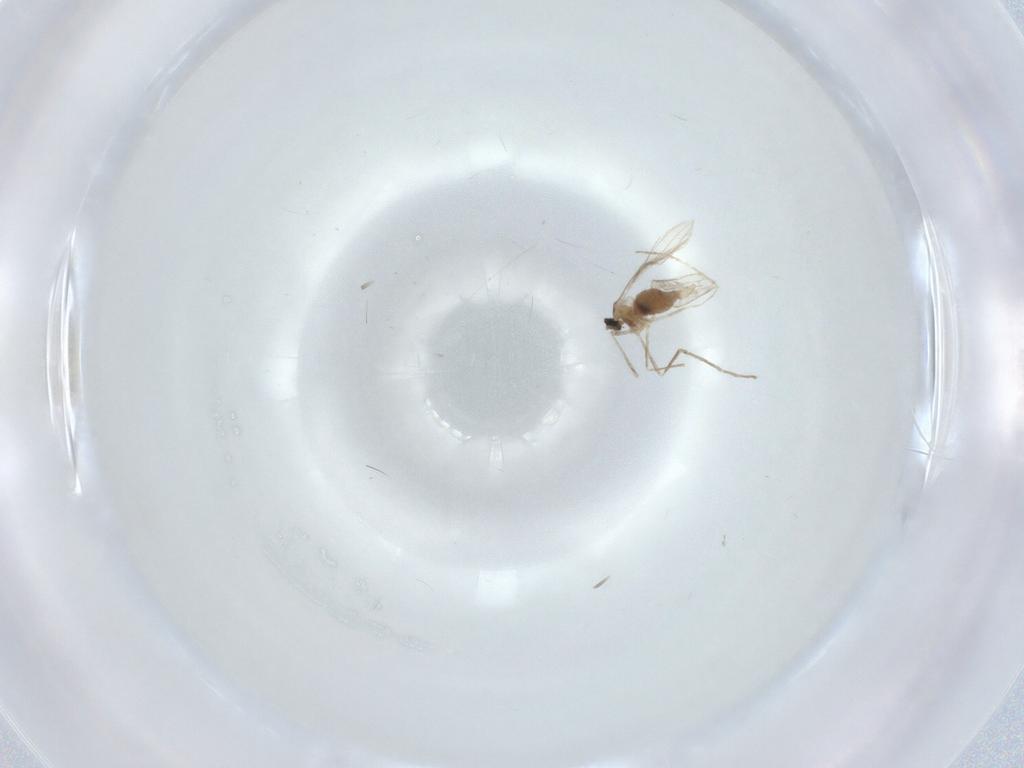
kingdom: Animalia
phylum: Arthropoda
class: Insecta
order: Diptera
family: Cecidomyiidae
